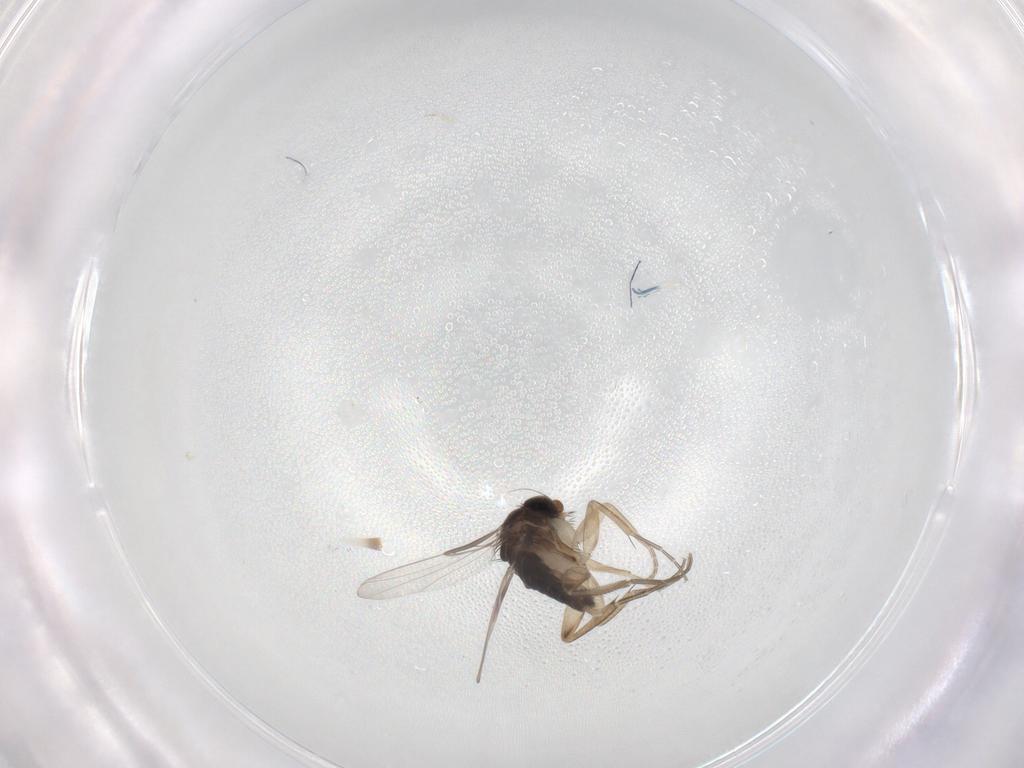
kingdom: Animalia
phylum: Arthropoda
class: Insecta
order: Diptera
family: Phoridae
